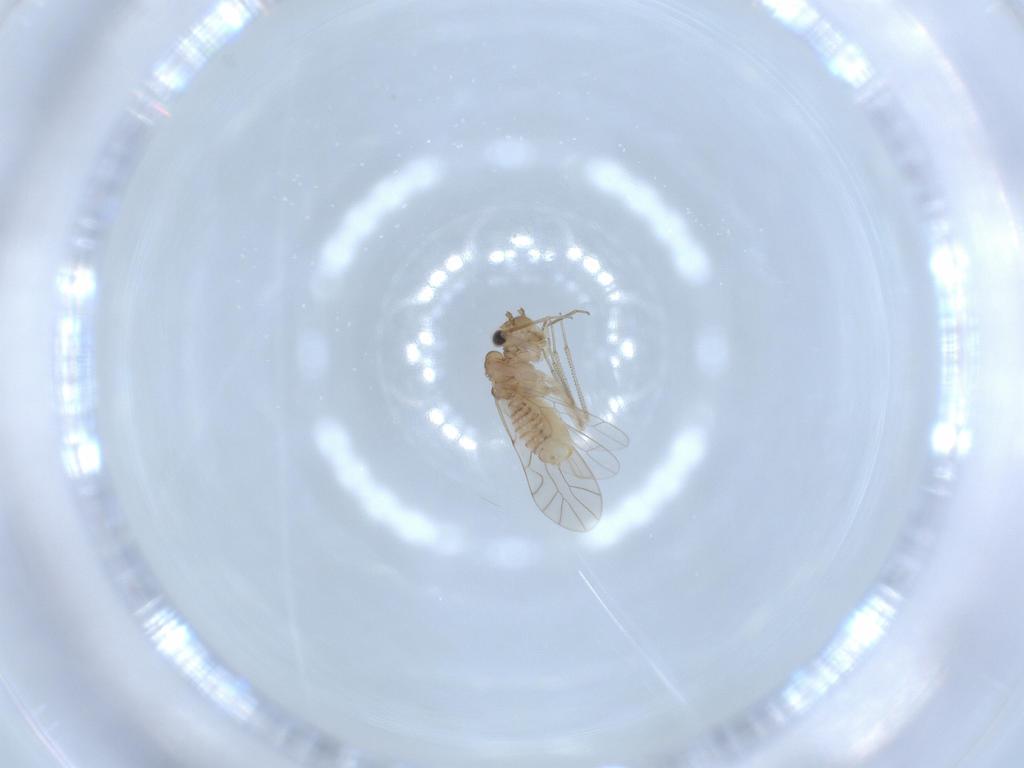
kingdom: Animalia
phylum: Arthropoda
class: Insecta
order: Psocodea
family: Lachesillidae
